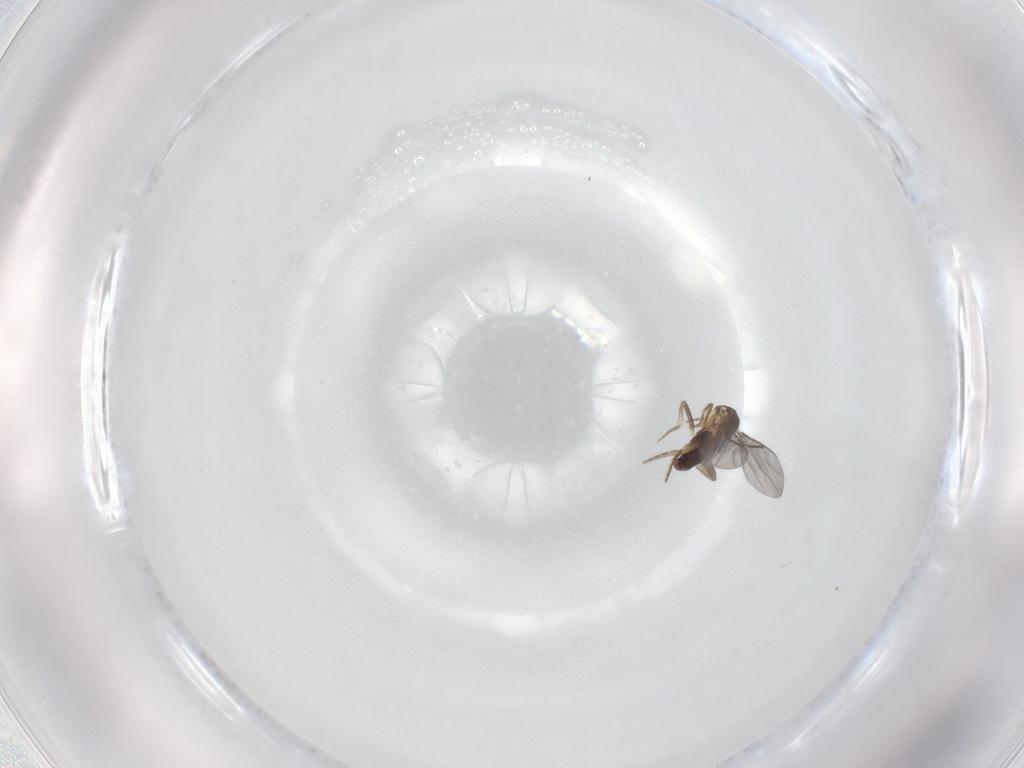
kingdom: Animalia
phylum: Arthropoda
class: Insecta
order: Diptera
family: Ceratopogonidae
